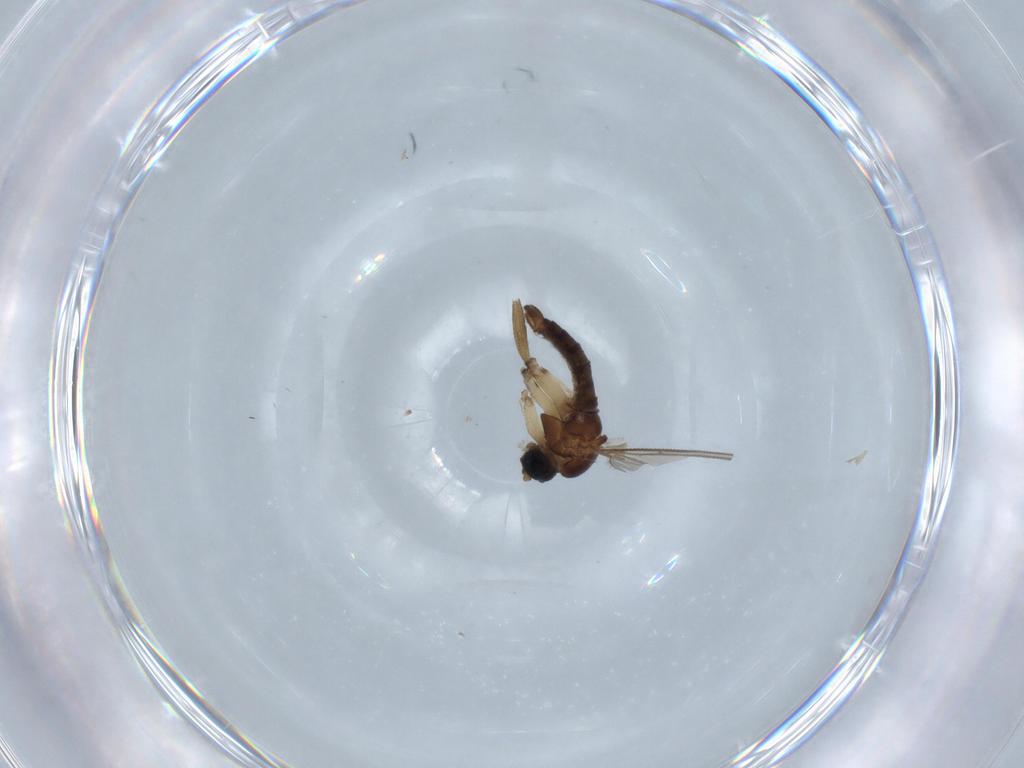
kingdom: Animalia
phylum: Arthropoda
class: Insecta
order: Diptera
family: Sciaridae
